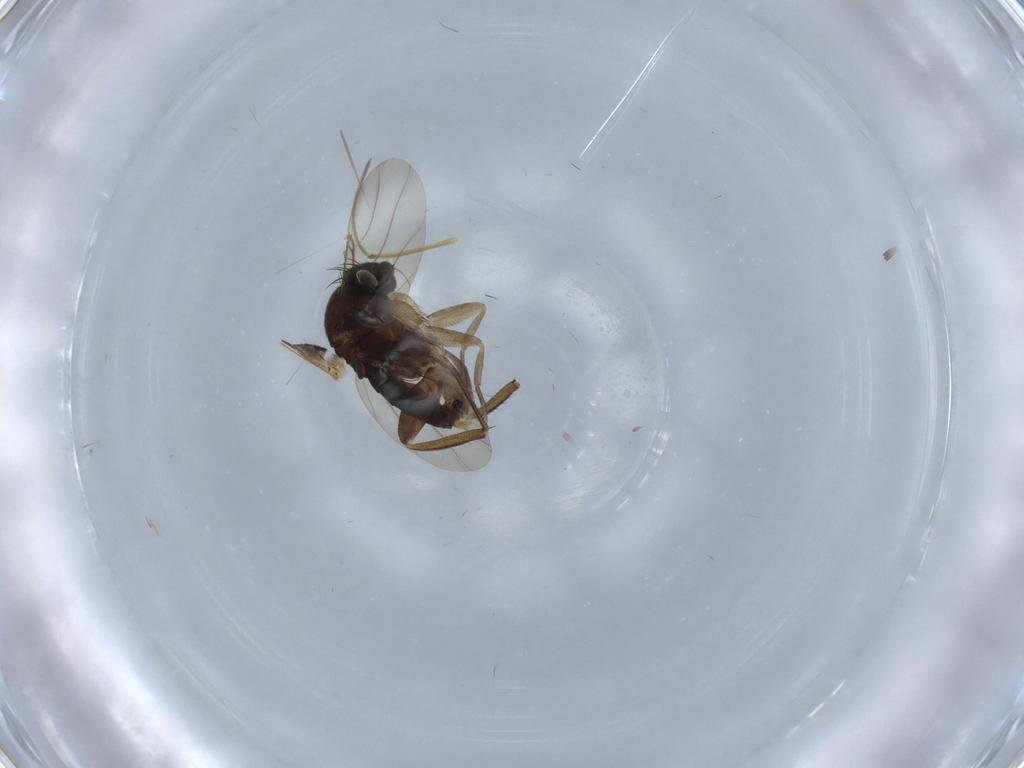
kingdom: Animalia
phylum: Arthropoda
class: Insecta
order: Diptera
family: Phoridae
